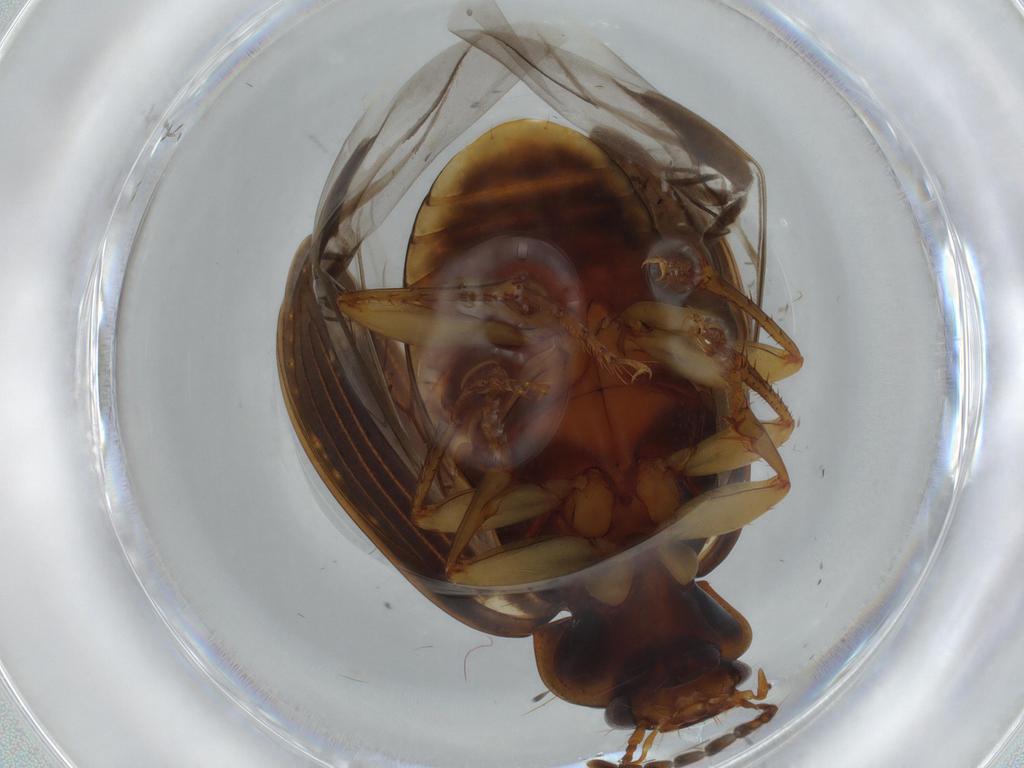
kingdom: Animalia
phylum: Arthropoda
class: Insecta
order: Coleoptera
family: Carabidae
